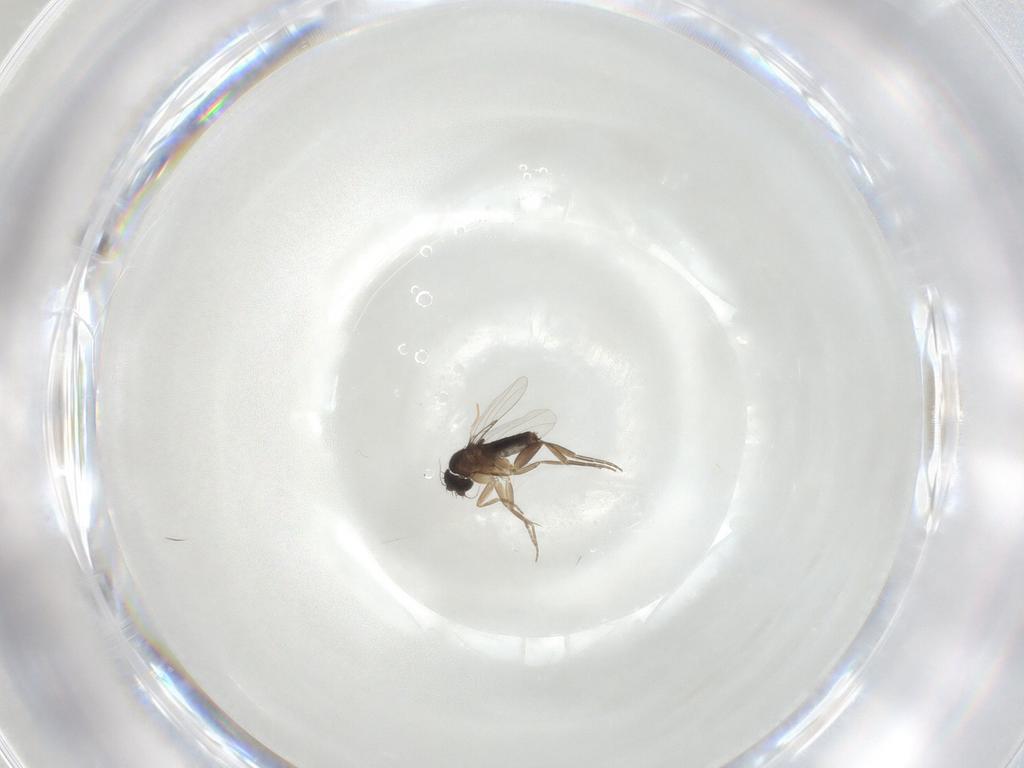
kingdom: Animalia
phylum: Arthropoda
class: Insecta
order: Diptera
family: Phoridae
